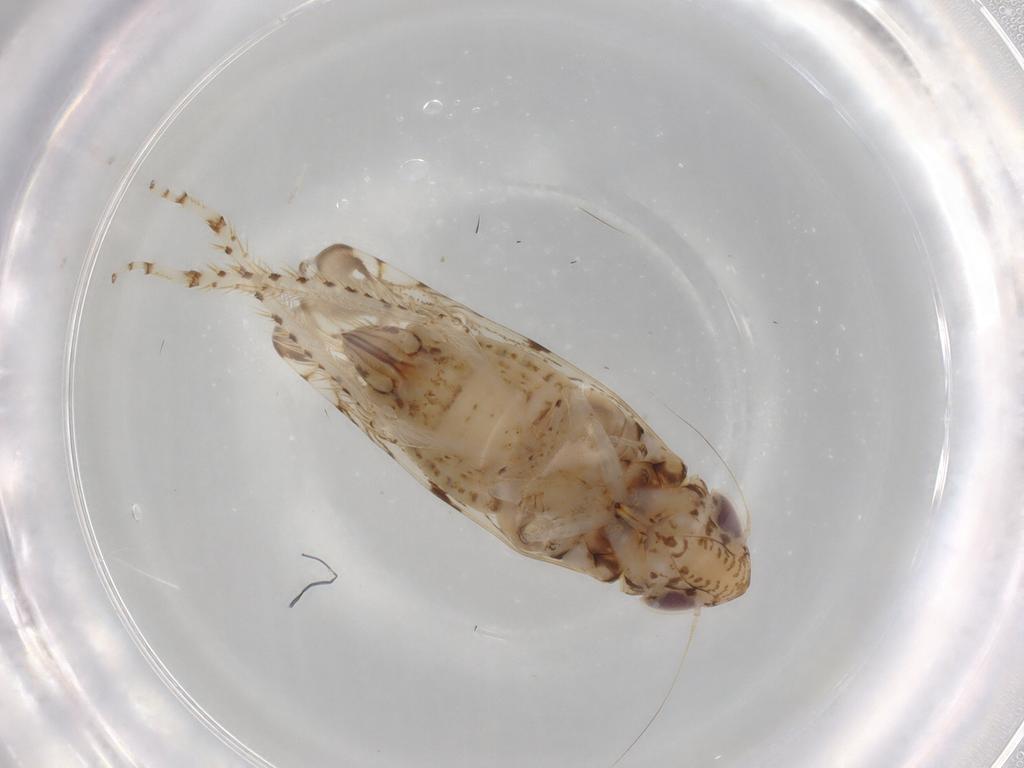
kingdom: Animalia
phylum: Arthropoda
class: Insecta
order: Hemiptera
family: Cicadellidae
